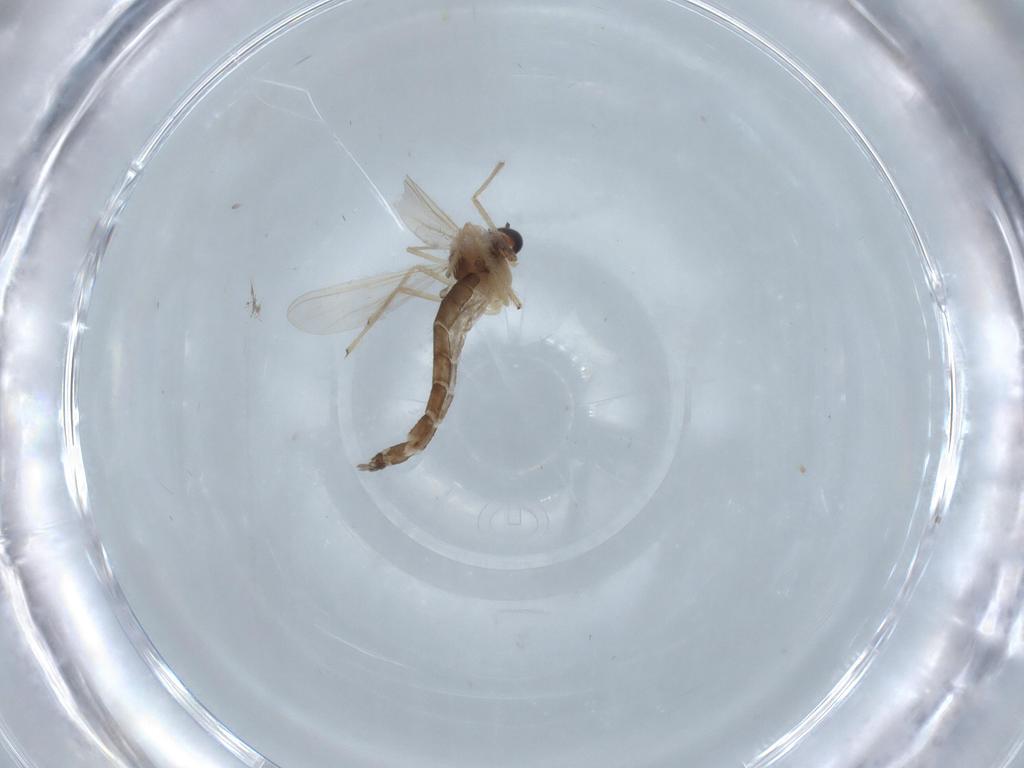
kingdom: Animalia
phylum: Arthropoda
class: Insecta
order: Diptera
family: Chironomidae
